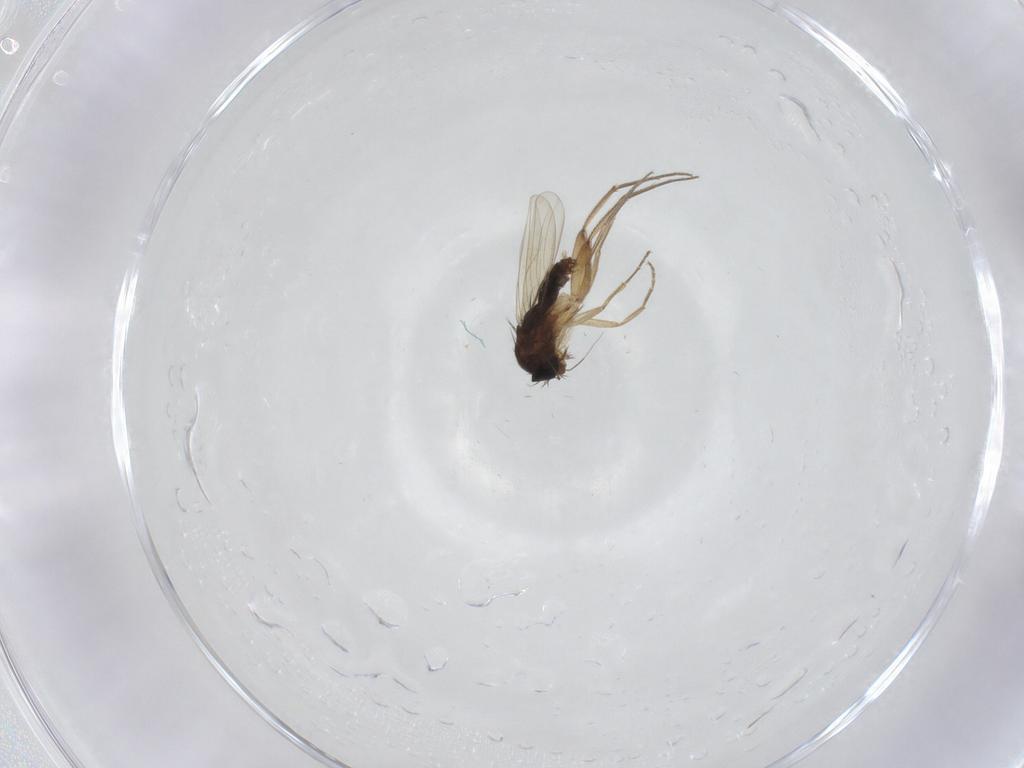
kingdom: Animalia
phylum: Arthropoda
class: Insecta
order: Diptera
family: Phoridae
